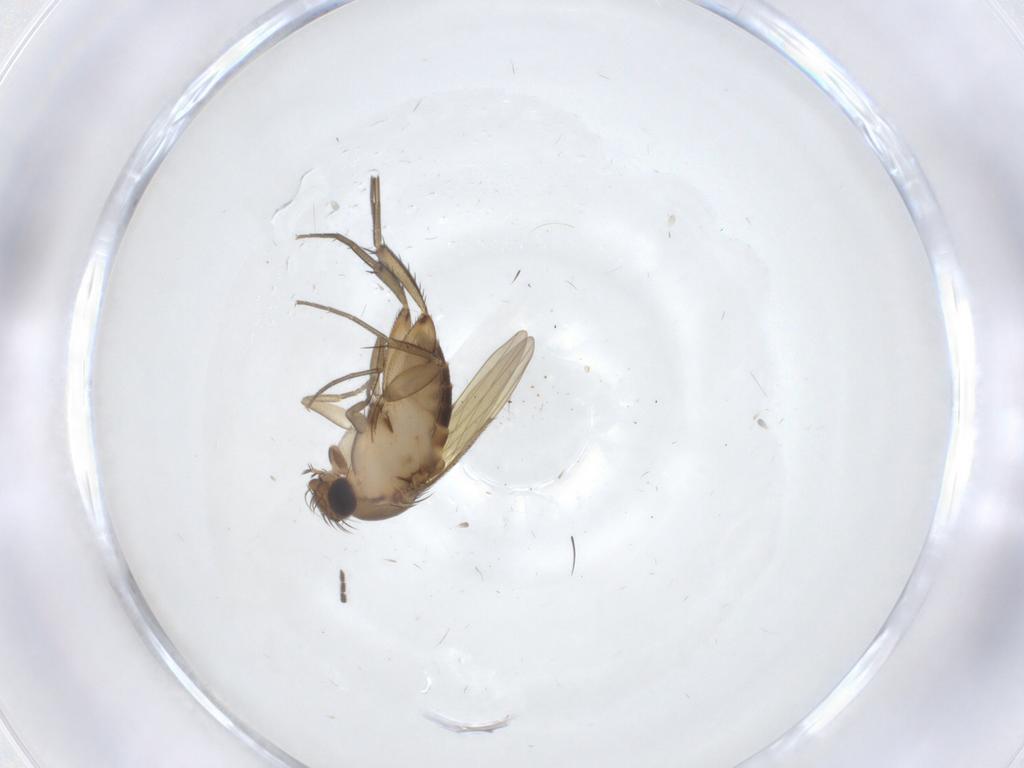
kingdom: Animalia
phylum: Arthropoda
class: Insecta
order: Diptera
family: Phoridae
